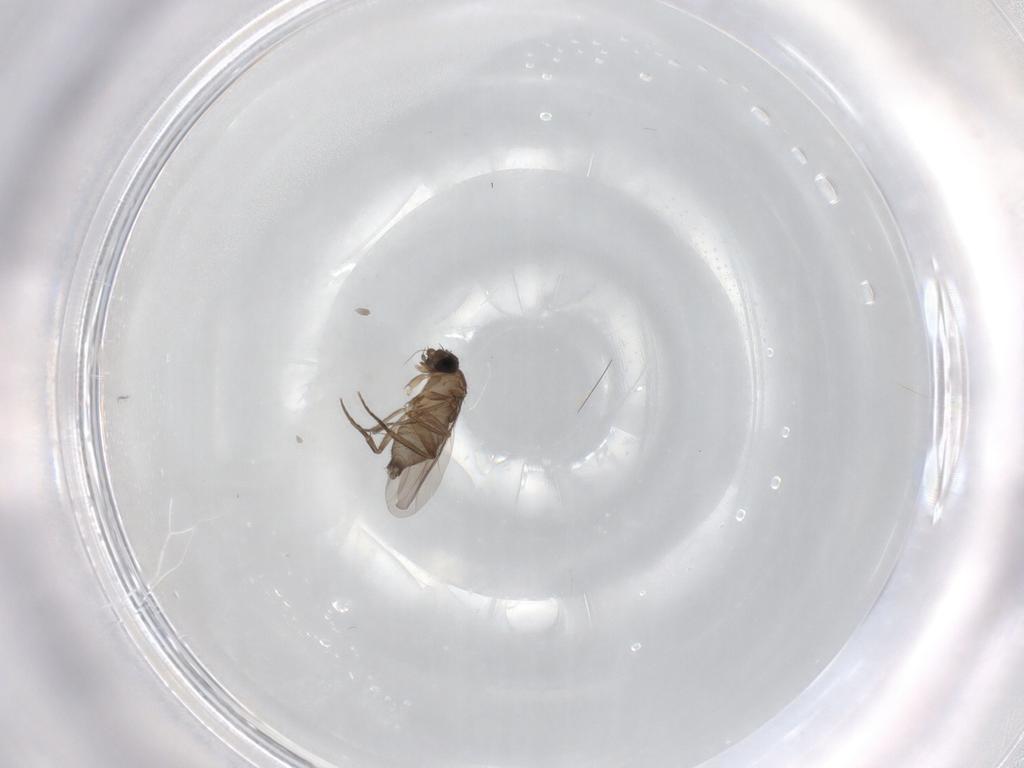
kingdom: Animalia
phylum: Arthropoda
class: Insecta
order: Diptera
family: Phoridae
